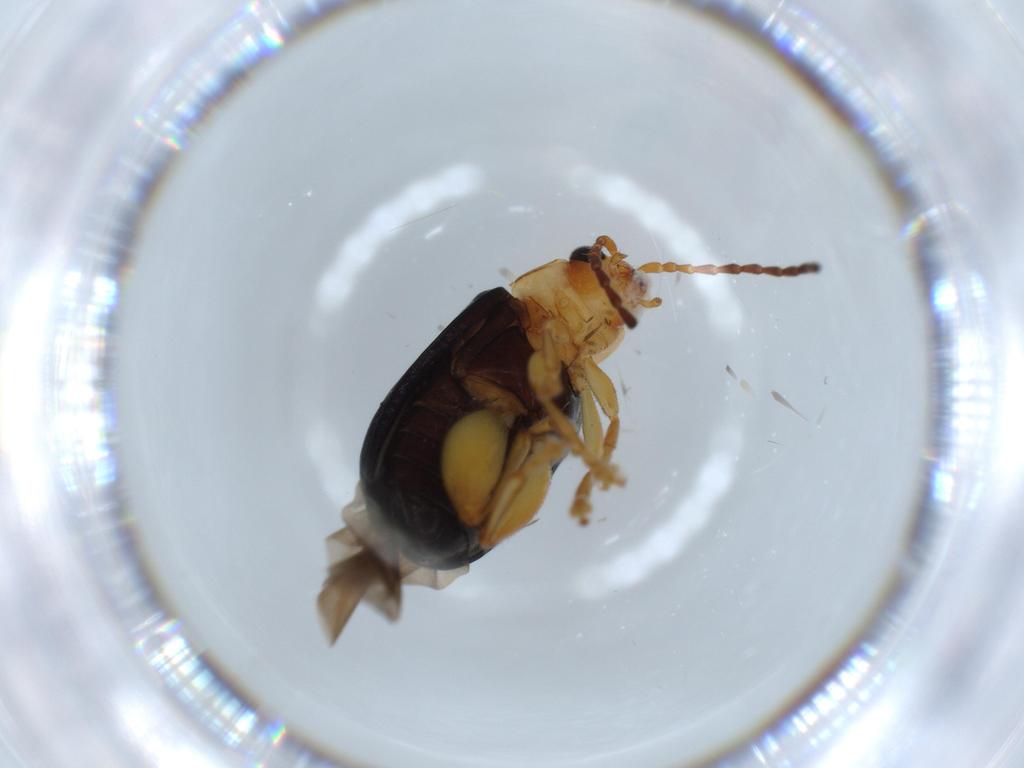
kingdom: Animalia
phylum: Arthropoda
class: Insecta
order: Coleoptera
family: Chrysomelidae
